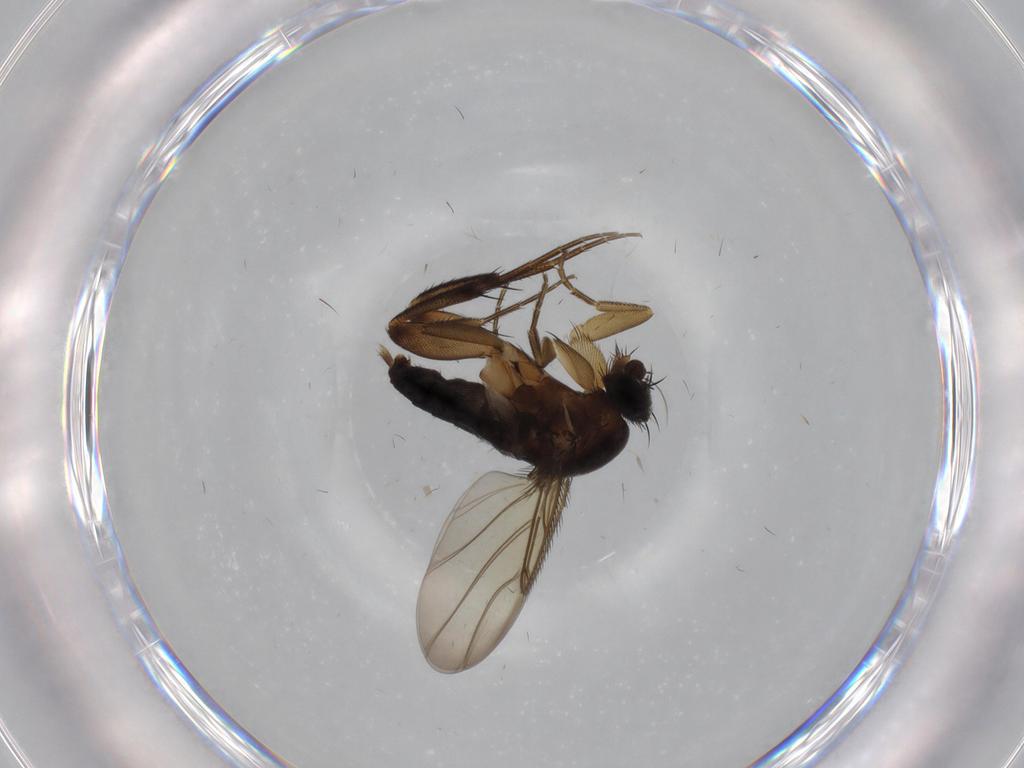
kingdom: Animalia
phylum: Arthropoda
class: Insecta
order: Diptera
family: Phoridae
